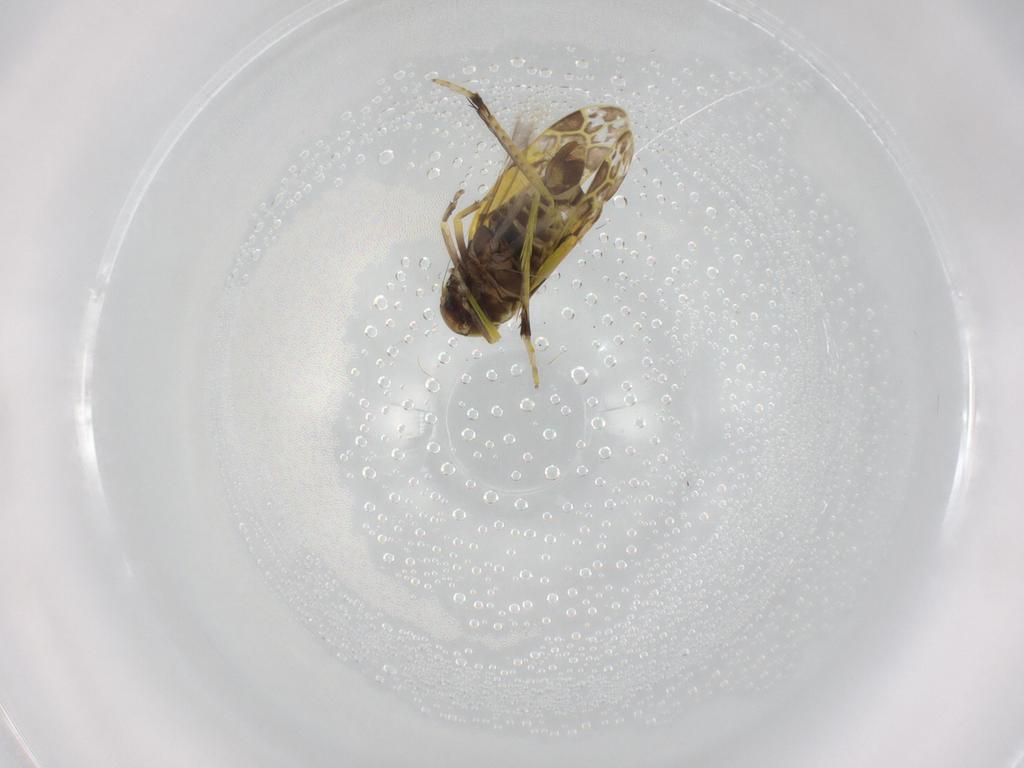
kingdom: Animalia
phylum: Arthropoda
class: Insecta
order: Hemiptera
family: Cicadellidae
